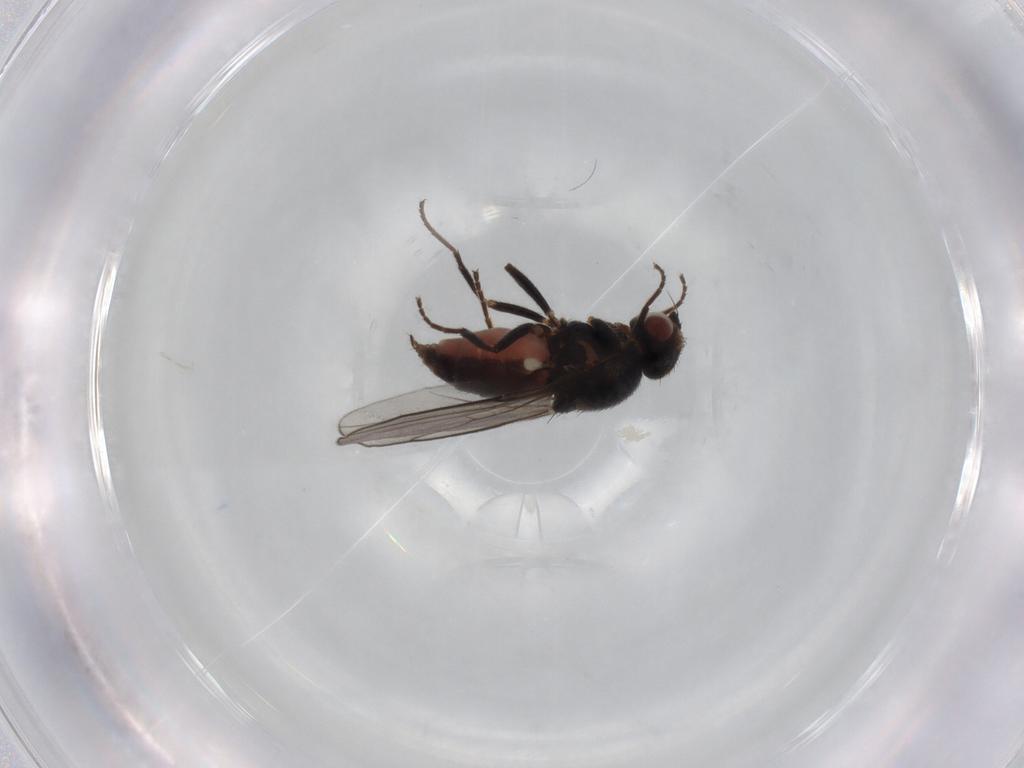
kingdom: Animalia
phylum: Arthropoda
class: Insecta
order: Diptera
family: Chloropidae
